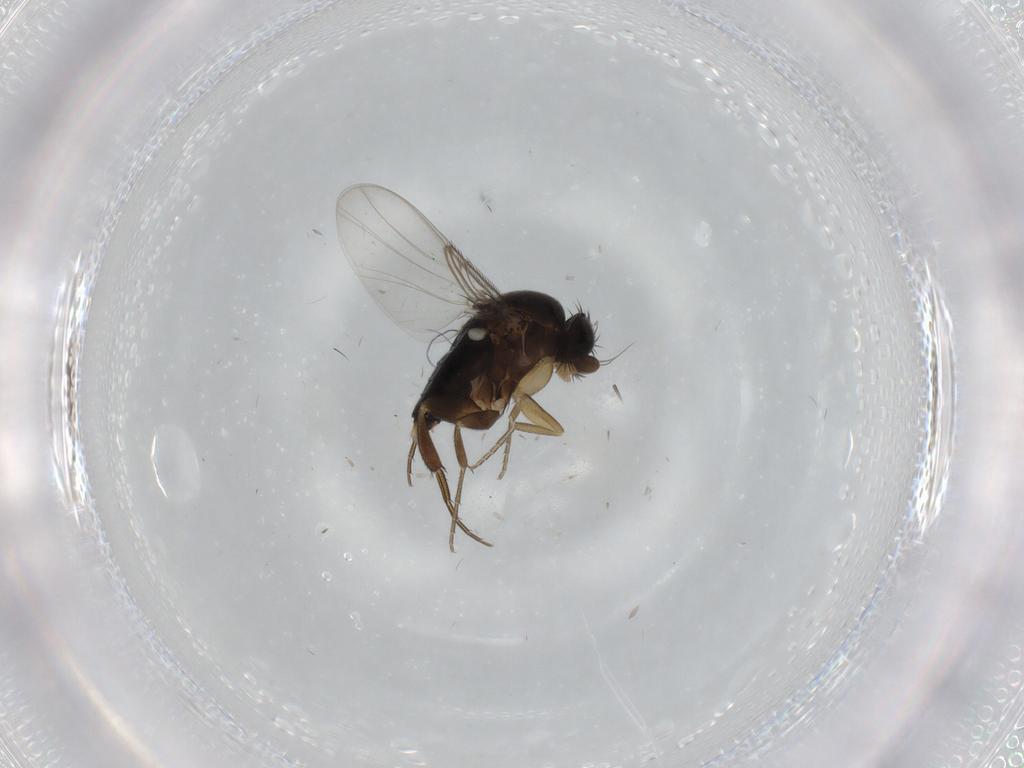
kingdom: Animalia
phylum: Arthropoda
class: Insecta
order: Diptera
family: Phoridae
